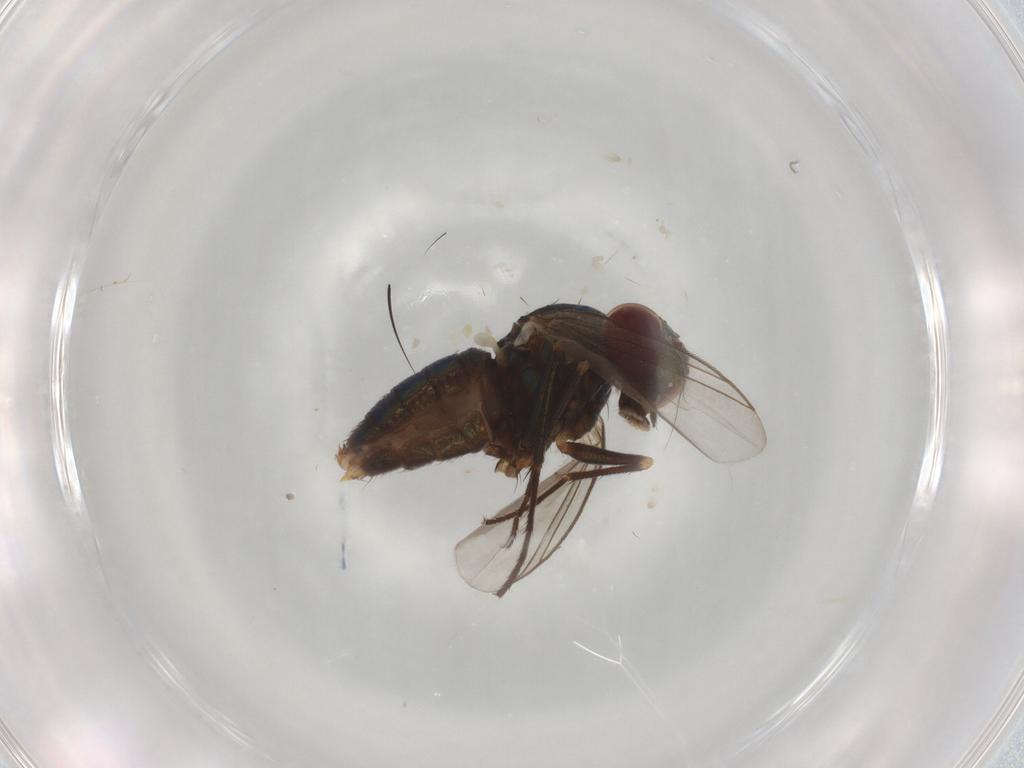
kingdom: Animalia
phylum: Arthropoda
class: Insecta
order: Diptera
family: Dolichopodidae
